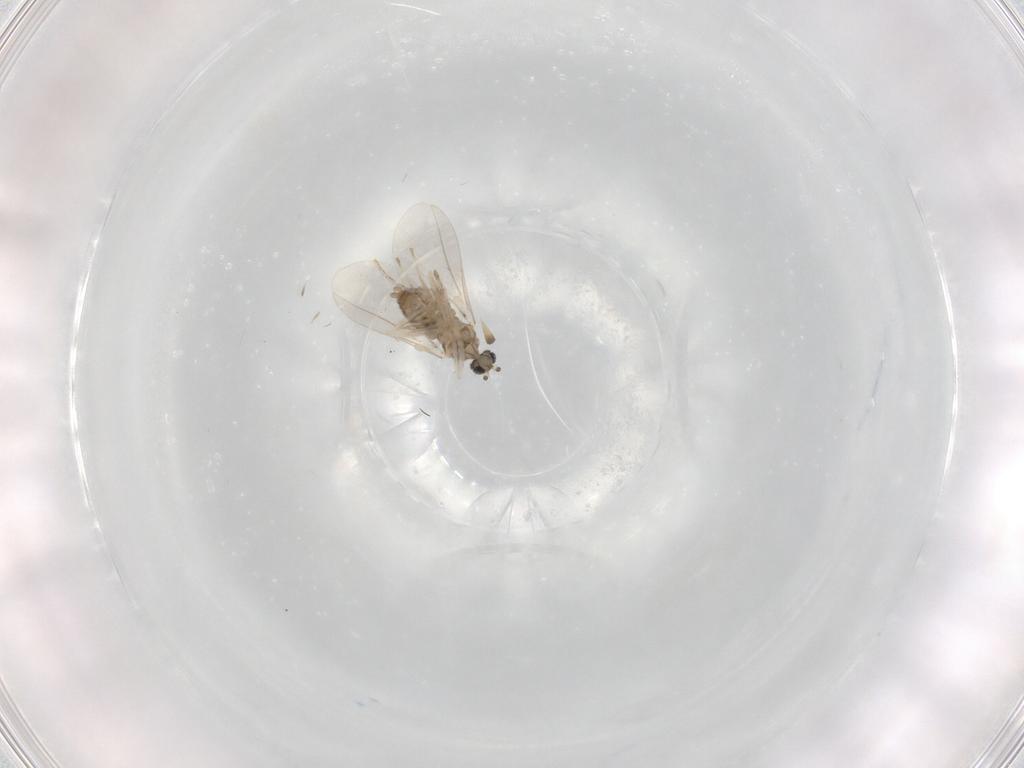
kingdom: Animalia
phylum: Arthropoda
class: Insecta
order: Diptera
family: Cecidomyiidae
